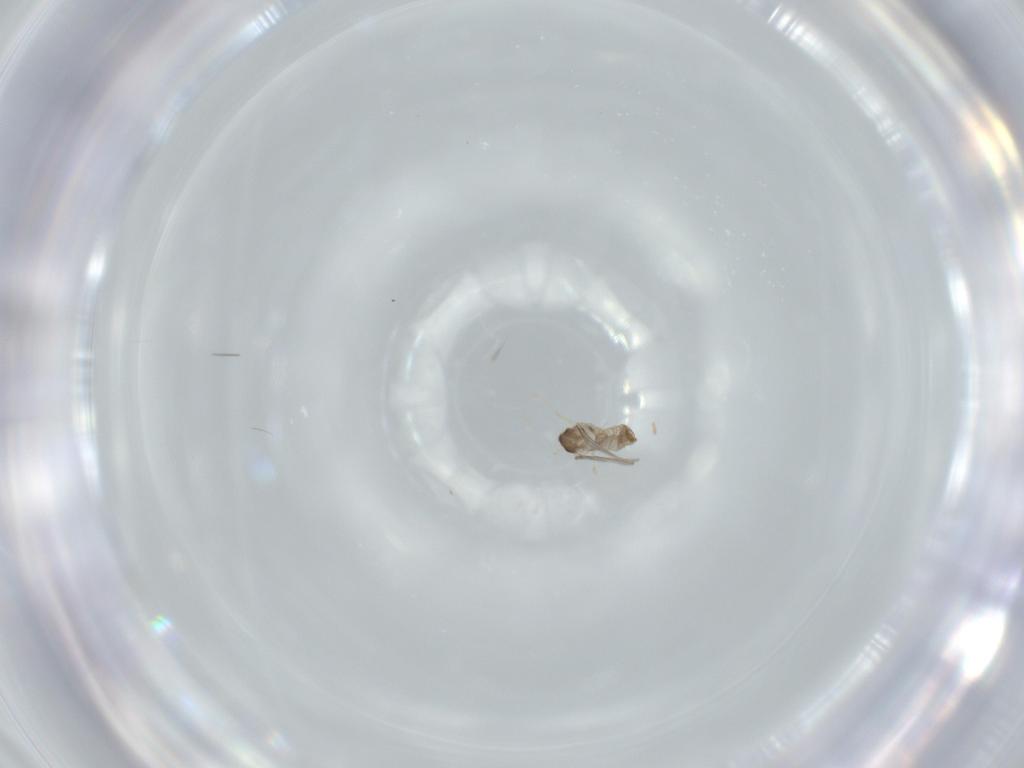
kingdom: Animalia
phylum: Arthropoda
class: Insecta
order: Diptera
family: Cecidomyiidae
